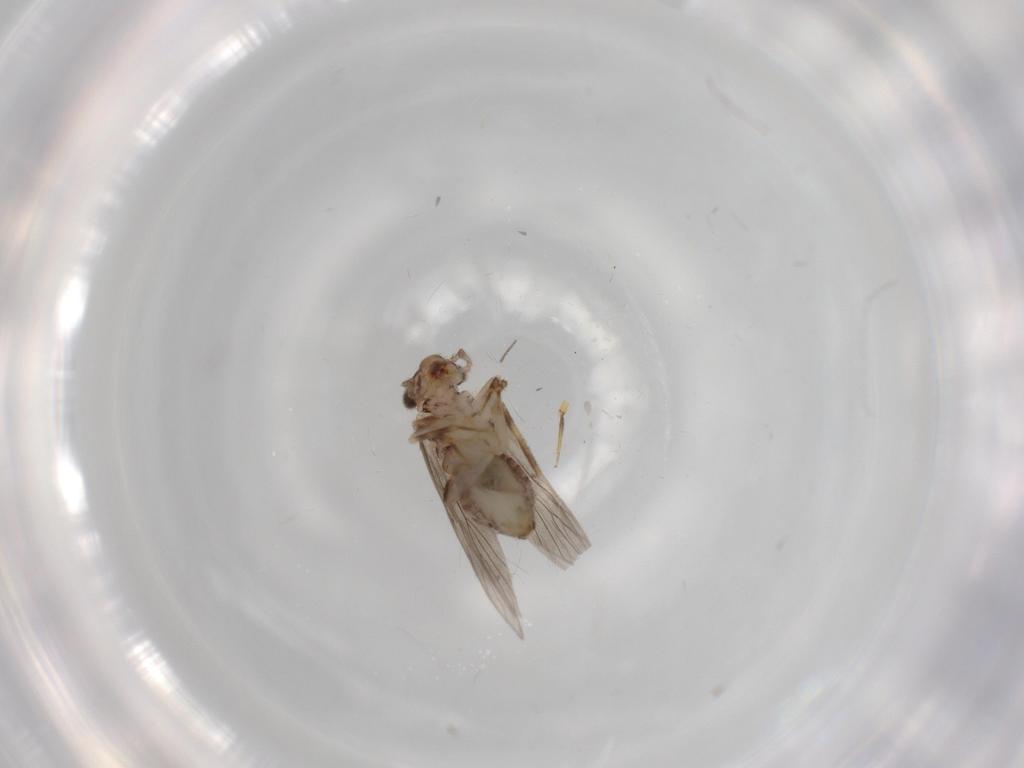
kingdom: Animalia
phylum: Arthropoda
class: Insecta
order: Psocodea
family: Lepidopsocidae
